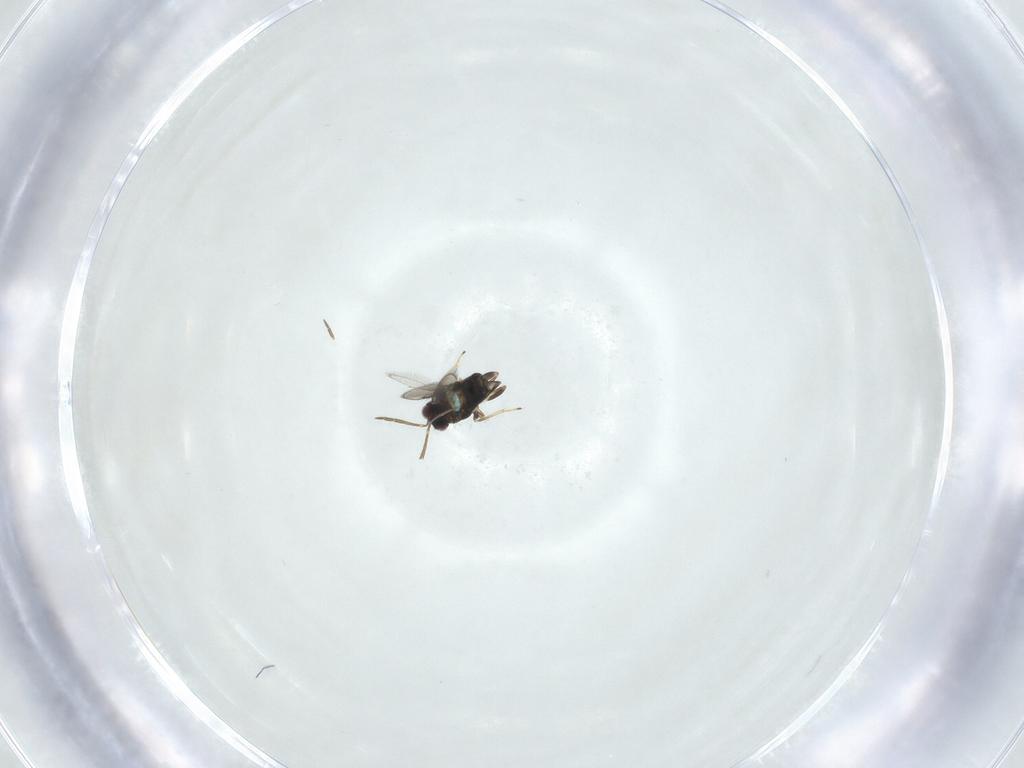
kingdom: Animalia
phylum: Arthropoda
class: Insecta
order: Hymenoptera
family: Aphelinidae
